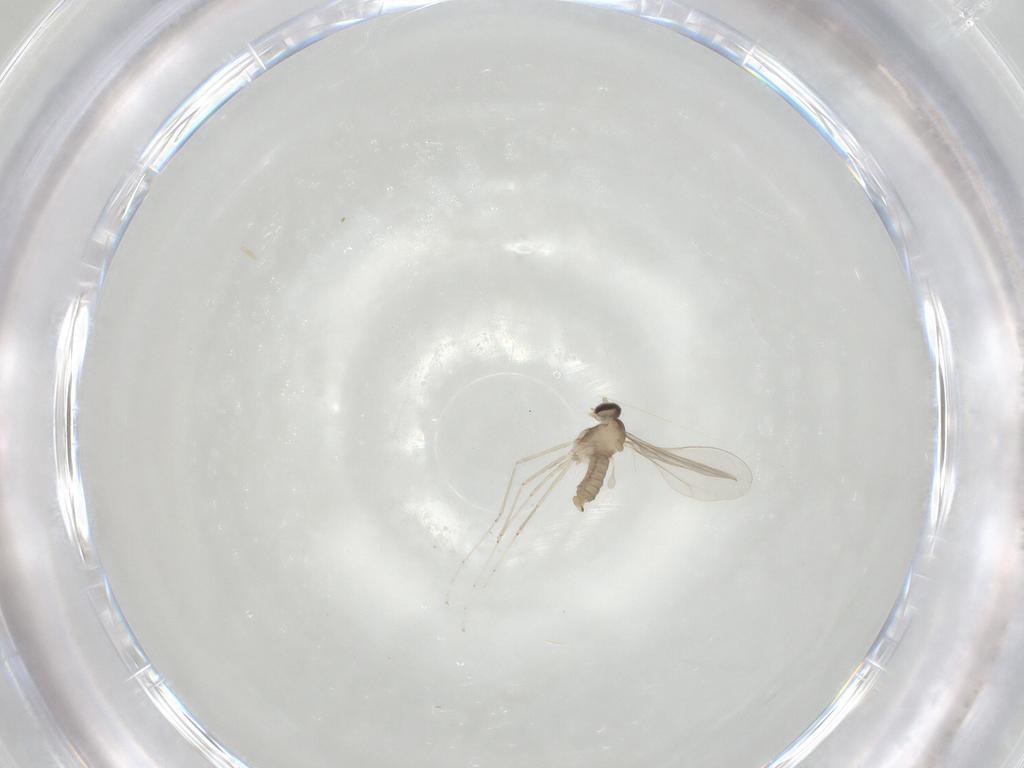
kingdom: Animalia
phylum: Arthropoda
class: Insecta
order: Diptera
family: Cecidomyiidae
